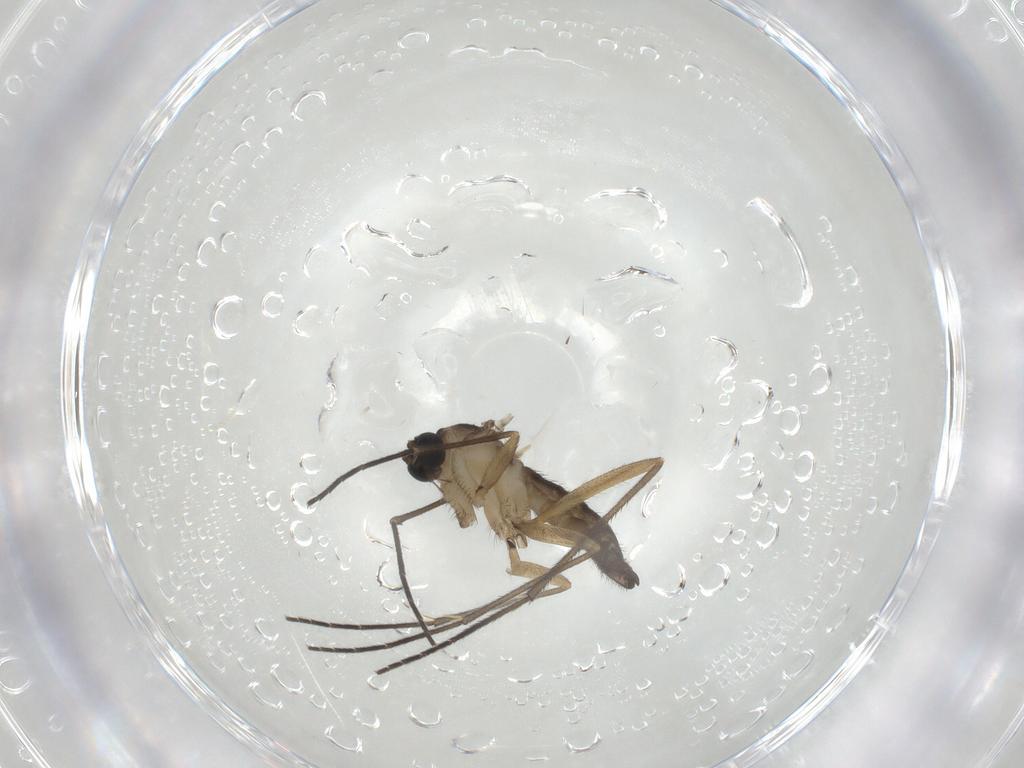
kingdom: Animalia
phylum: Arthropoda
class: Insecta
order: Diptera
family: Sciaridae
